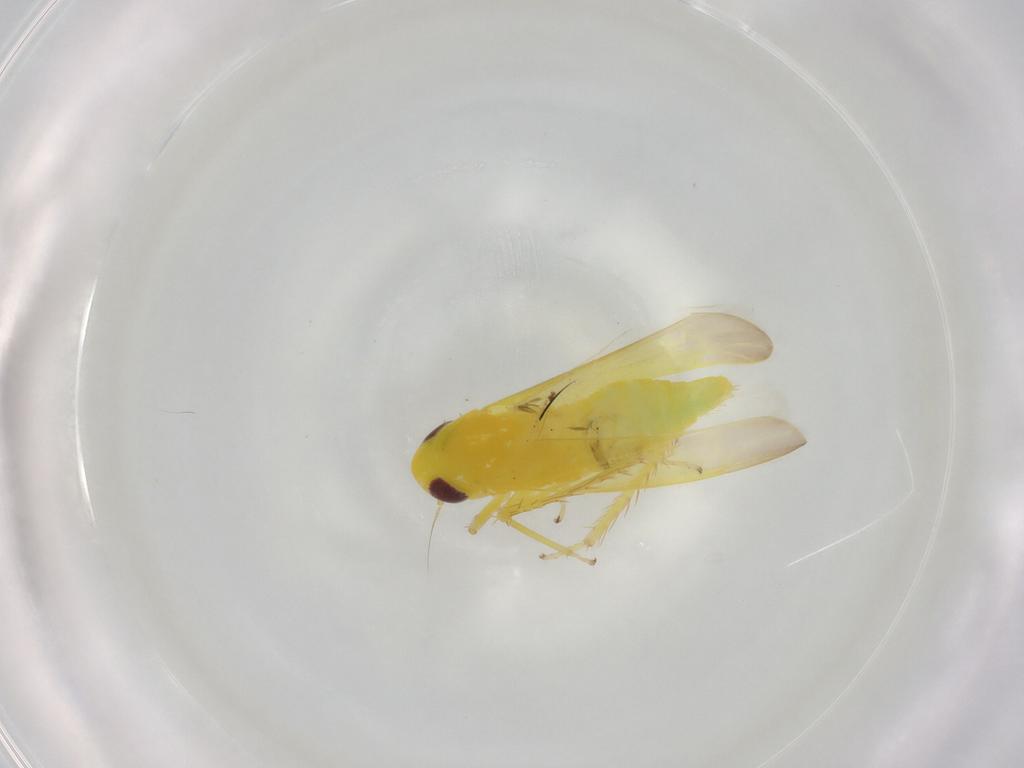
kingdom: Animalia
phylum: Arthropoda
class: Insecta
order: Hemiptera
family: Cicadellidae
